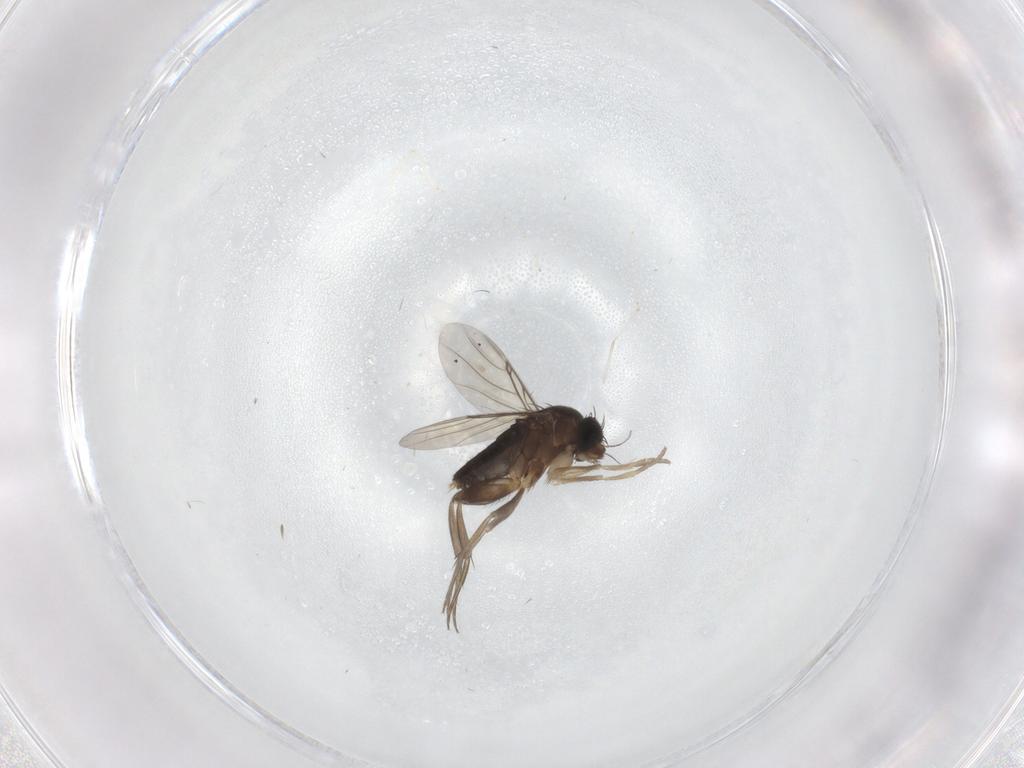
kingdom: Animalia
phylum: Arthropoda
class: Insecta
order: Diptera
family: Phoridae
